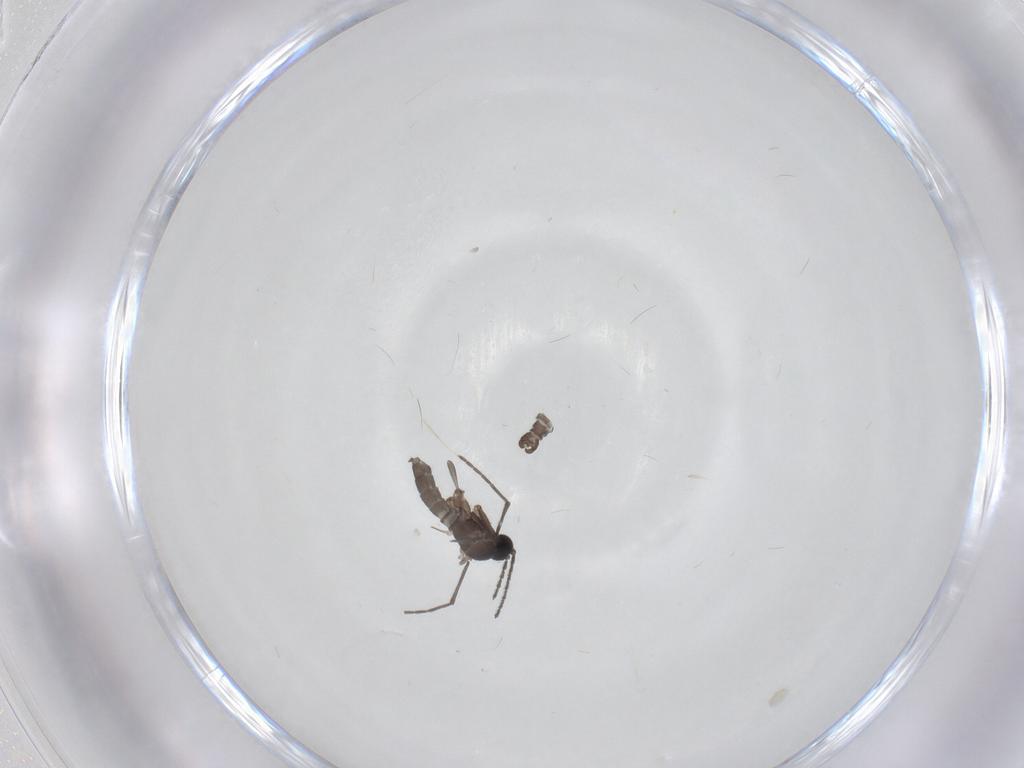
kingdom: Animalia
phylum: Arthropoda
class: Insecta
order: Diptera
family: Sciaridae
